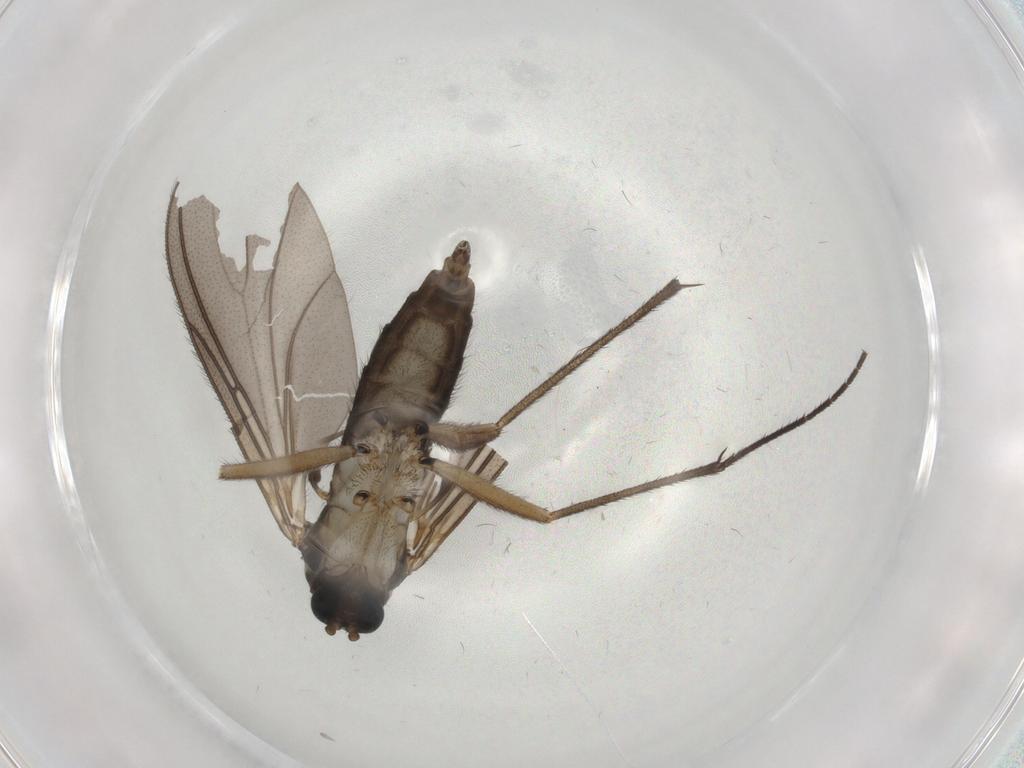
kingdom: Animalia
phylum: Arthropoda
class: Insecta
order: Diptera
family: Sciaridae
